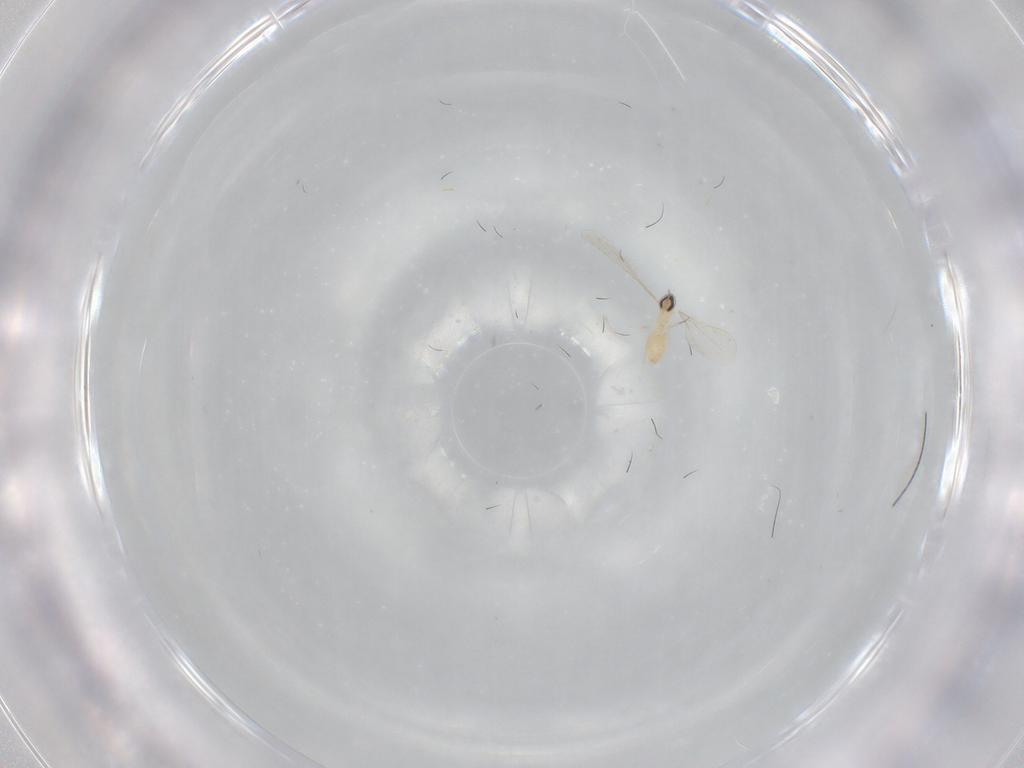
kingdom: Animalia
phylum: Arthropoda
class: Insecta
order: Diptera
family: Cecidomyiidae
